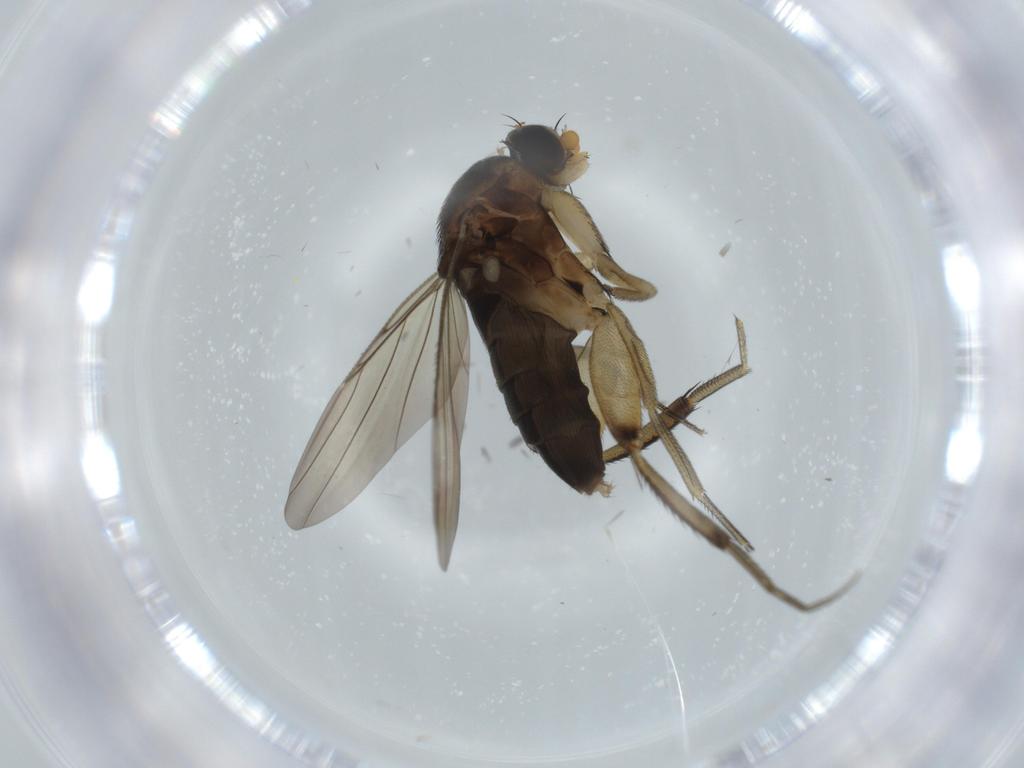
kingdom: Animalia
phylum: Arthropoda
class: Insecta
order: Diptera
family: Phoridae
